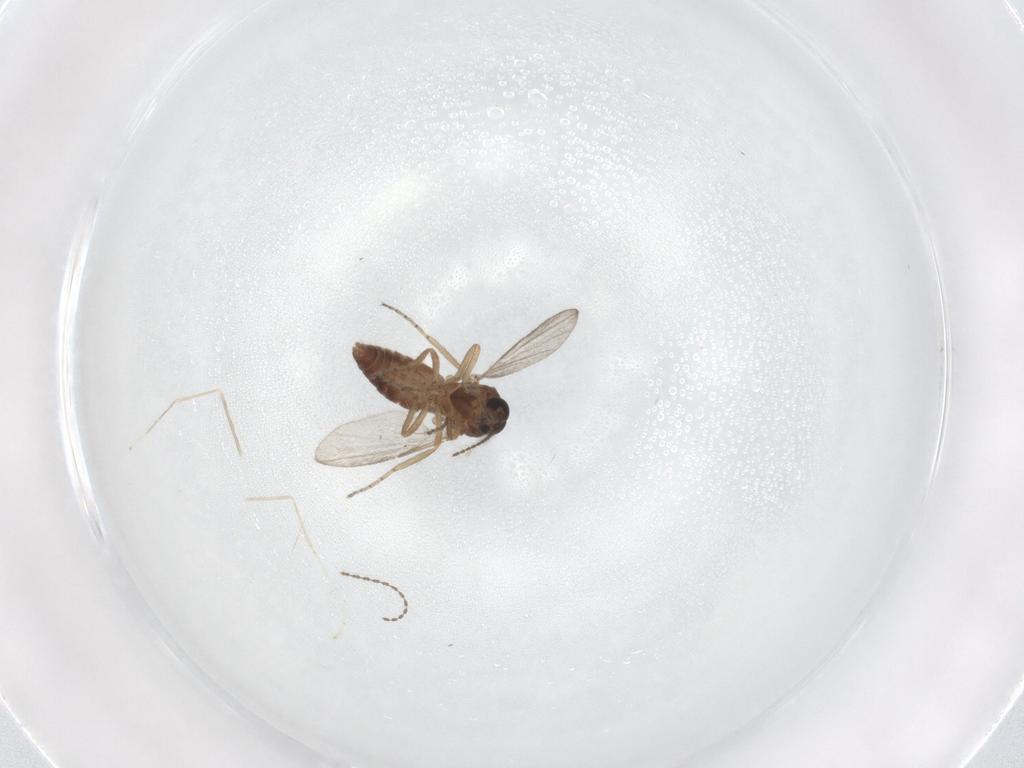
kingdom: Animalia
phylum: Arthropoda
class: Insecta
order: Diptera
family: Ceratopogonidae
